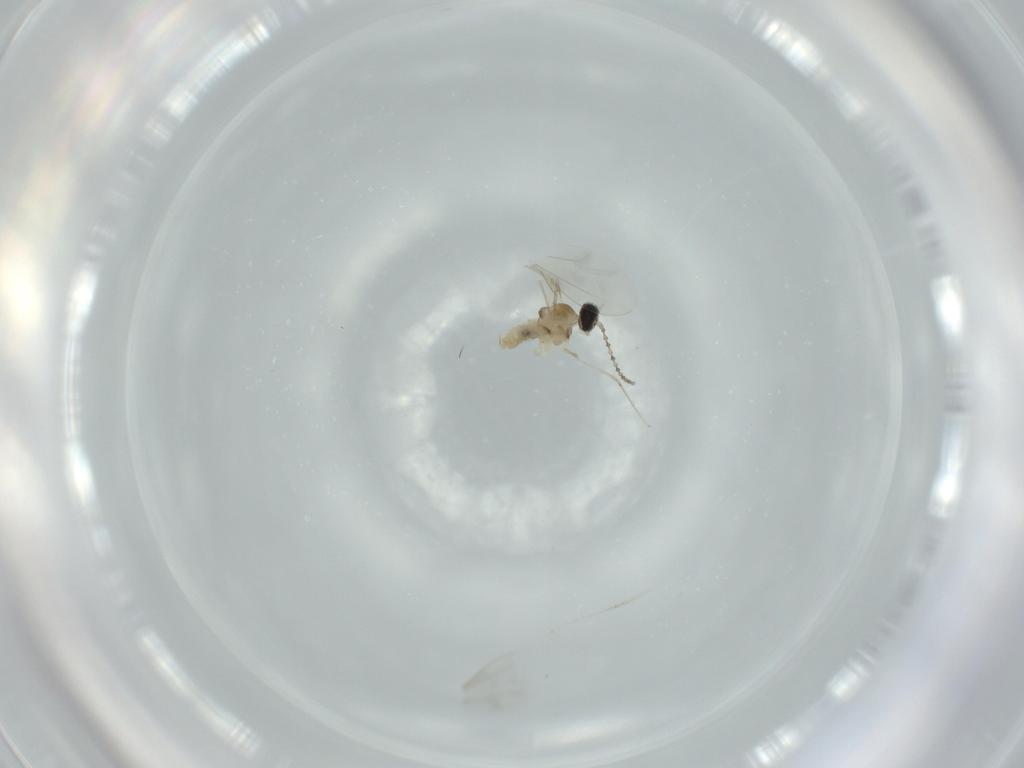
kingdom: Animalia
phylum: Arthropoda
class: Insecta
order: Diptera
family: Cecidomyiidae
